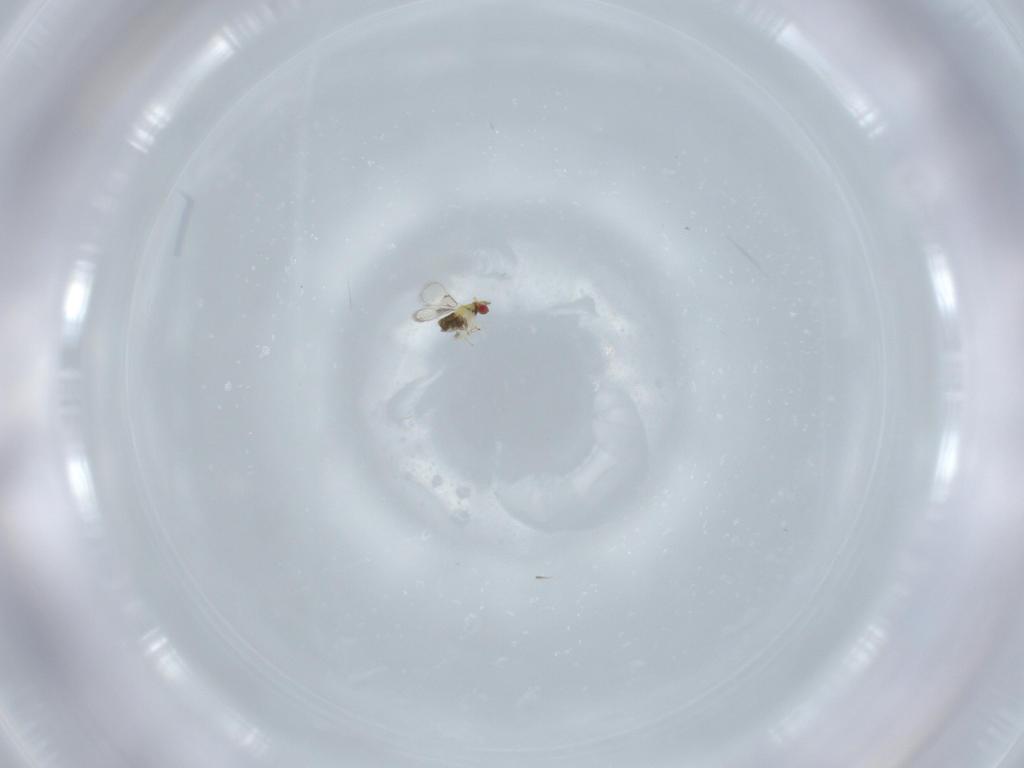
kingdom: Animalia
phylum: Arthropoda
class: Insecta
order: Hymenoptera
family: Trichogrammatidae
